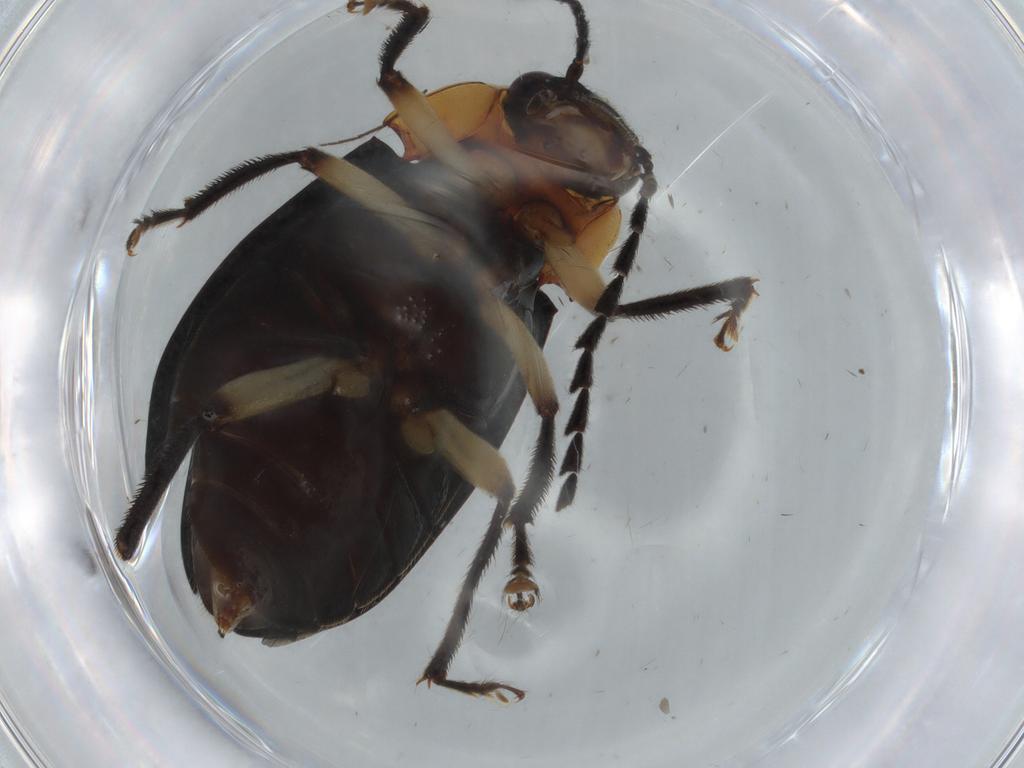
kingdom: Animalia
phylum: Arthropoda
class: Insecta
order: Coleoptera
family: Ptilodactylidae
